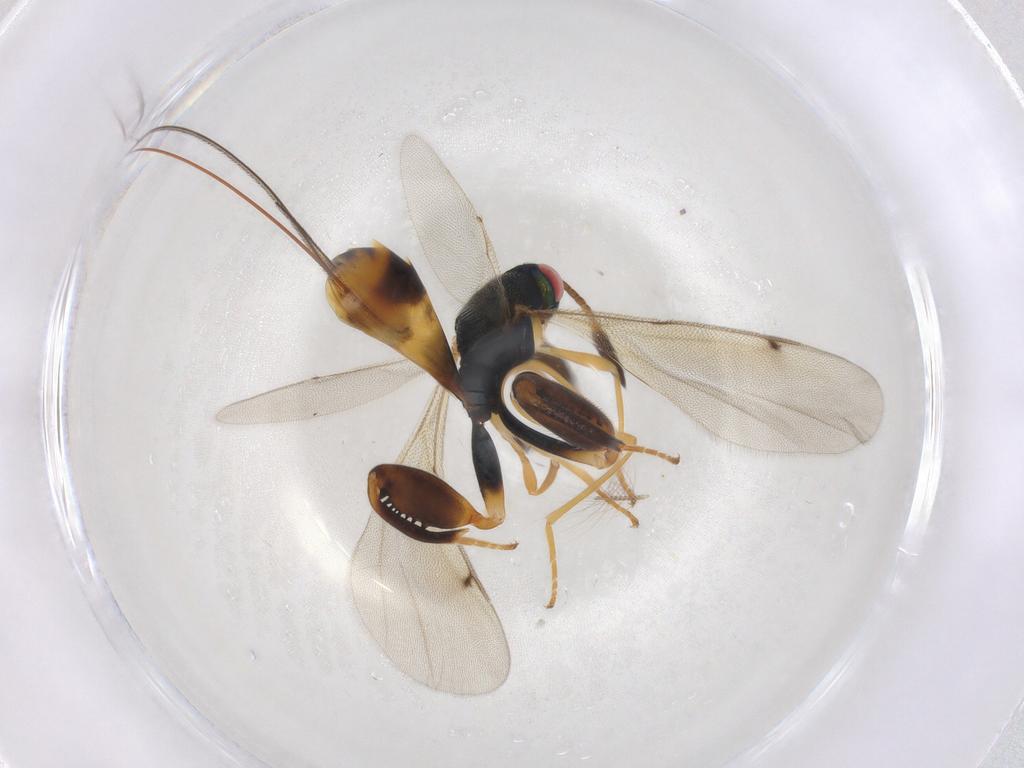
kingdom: Animalia
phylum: Arthropoda
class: Insecta
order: Hymenoptera
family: Torymidae
